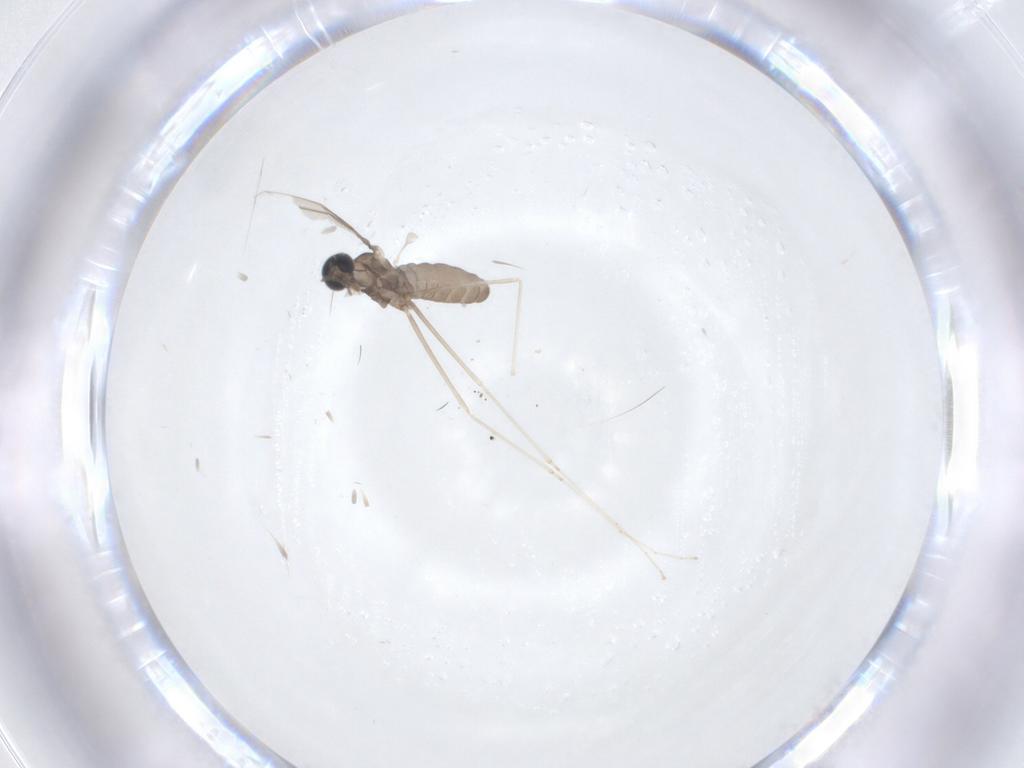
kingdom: Animalia
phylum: Arthropoda
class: Insecta
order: Diptera
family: Cecidomyiidae
